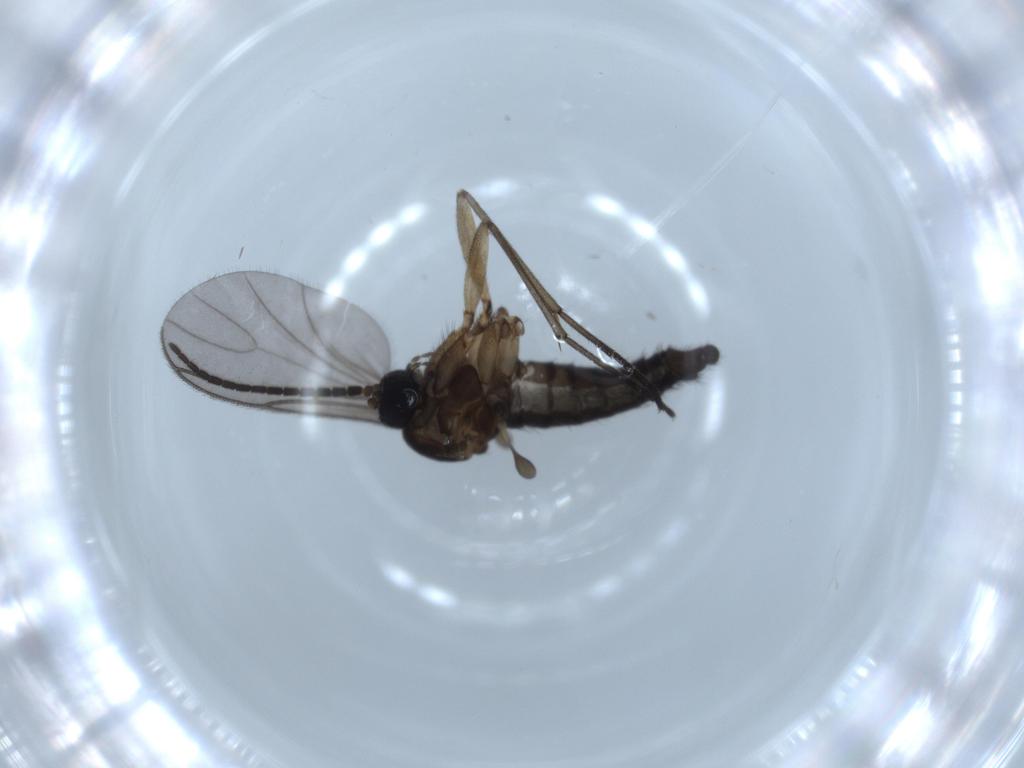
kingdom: Animalia
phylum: Arthropoda
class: Insecta
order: Diptera
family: Sciaridae
